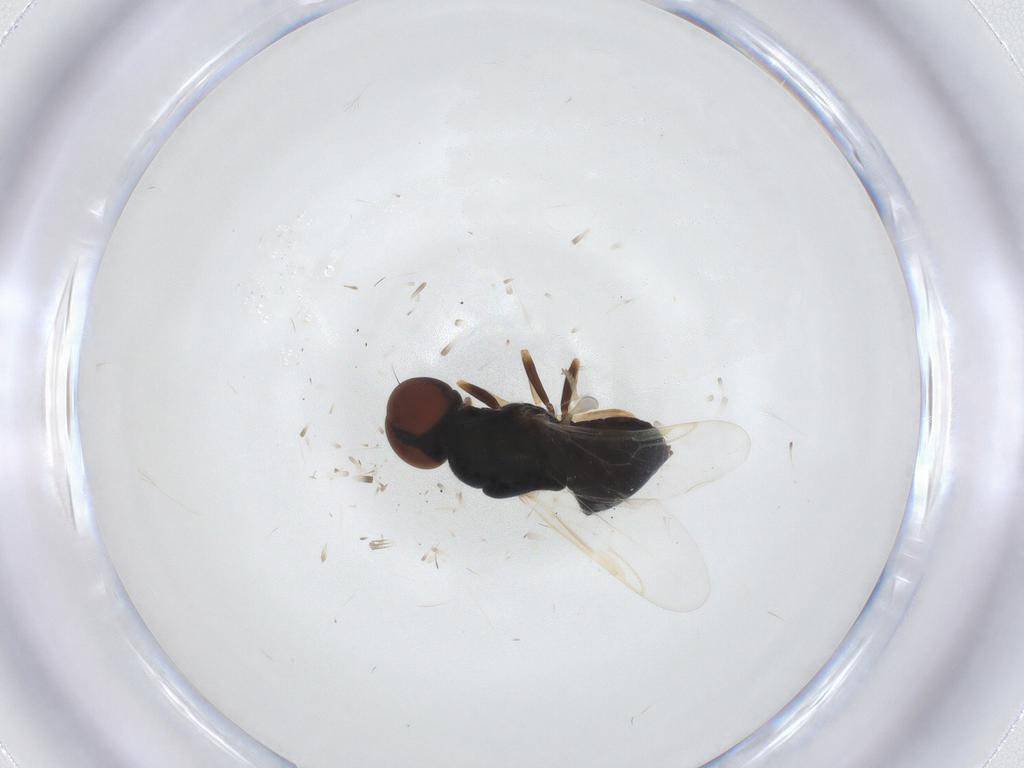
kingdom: Animalia
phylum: Arthropoda
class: Insecta
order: Diptera
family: Stratiomyidae
